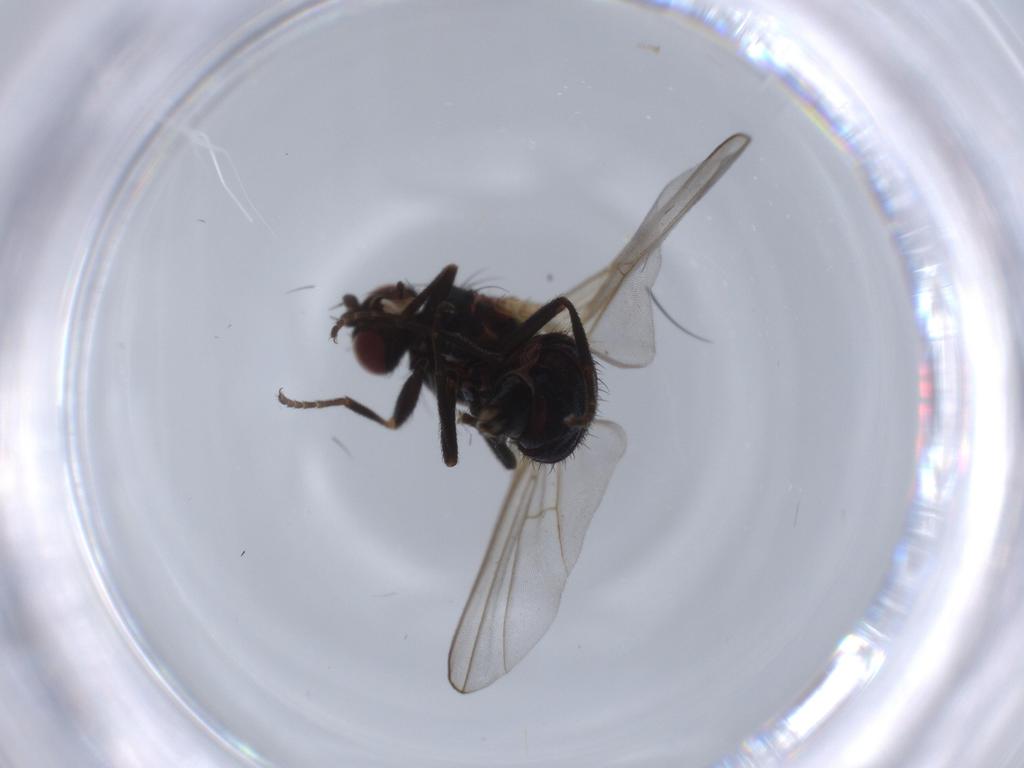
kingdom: Animalia
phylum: Arthropoda
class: Insecta
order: Diptera
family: Agromyzidae
